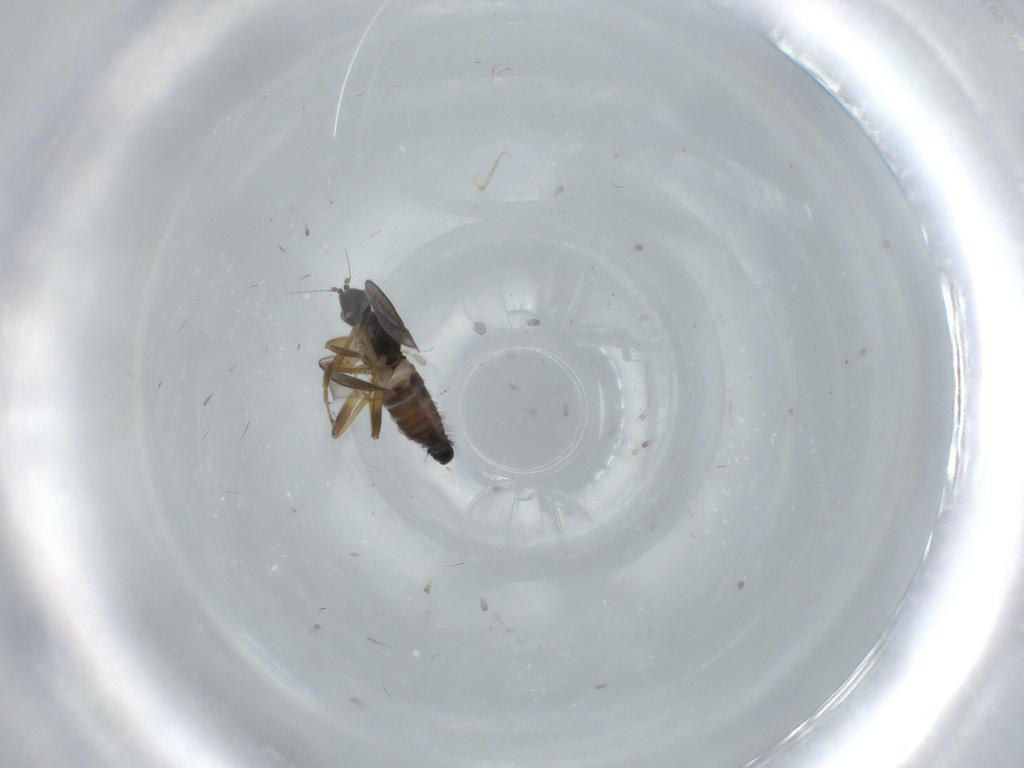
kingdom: Animalia
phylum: Arthropoda
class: Insecta
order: Diptera
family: Hybotidae
